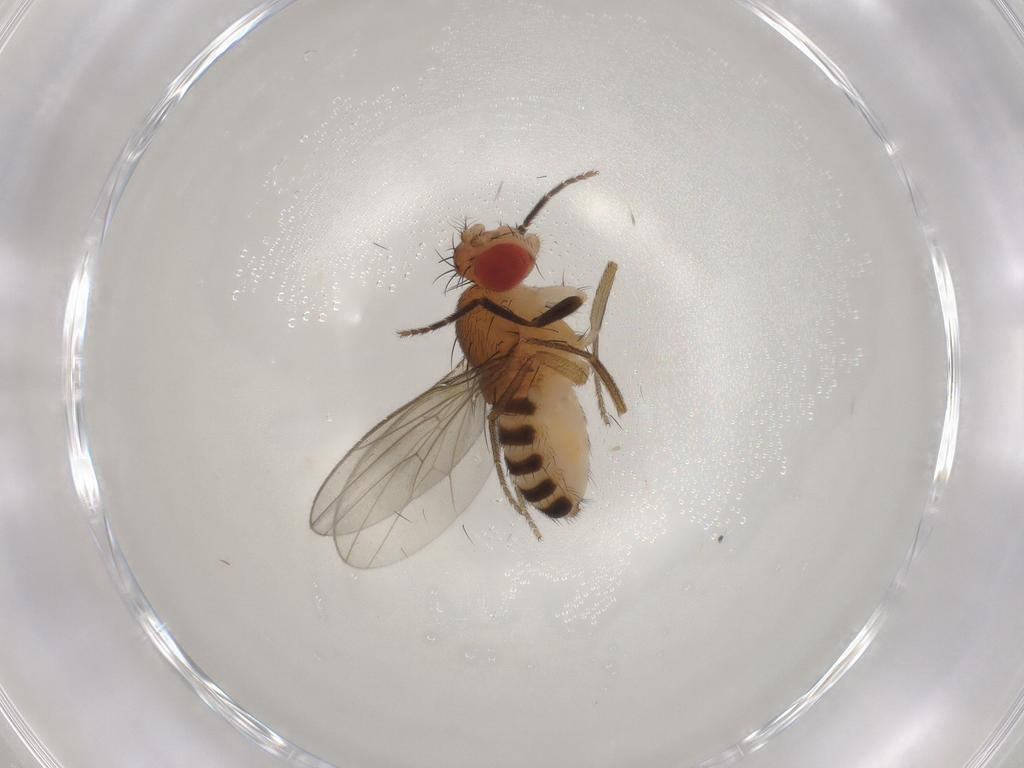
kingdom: Animalia
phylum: Arthropoda
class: Insecta
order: Diptera
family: Drosophilidae
